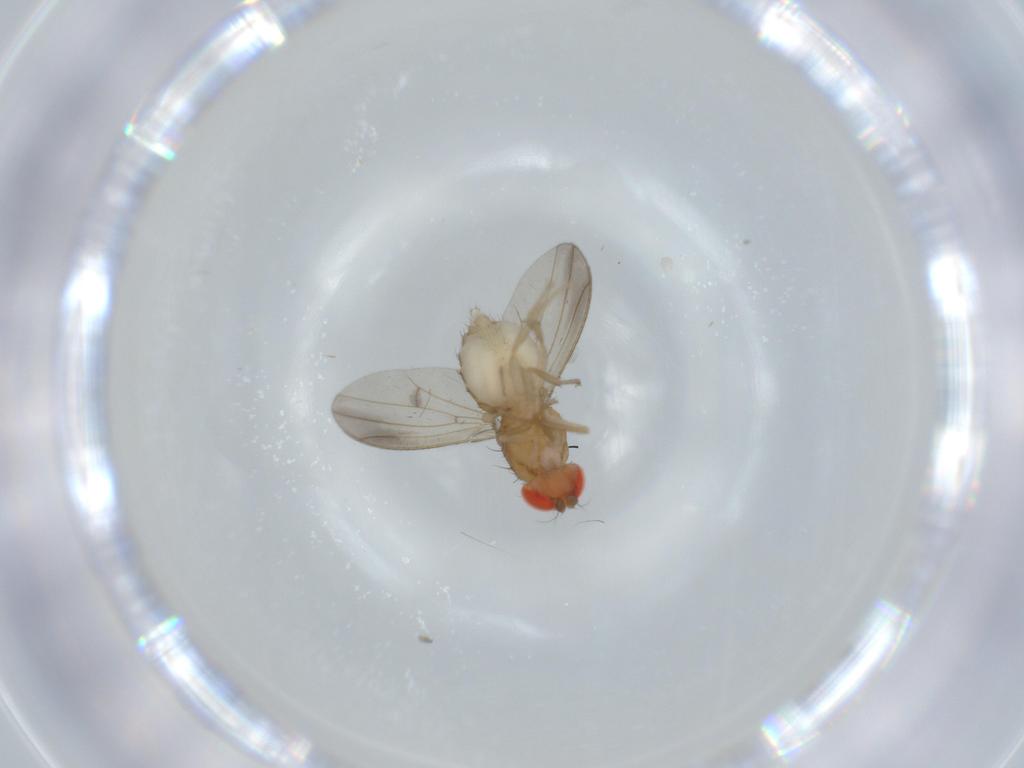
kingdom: Animalia
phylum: Arthropoda
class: Insecta
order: Diptera
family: Drosophilidae
